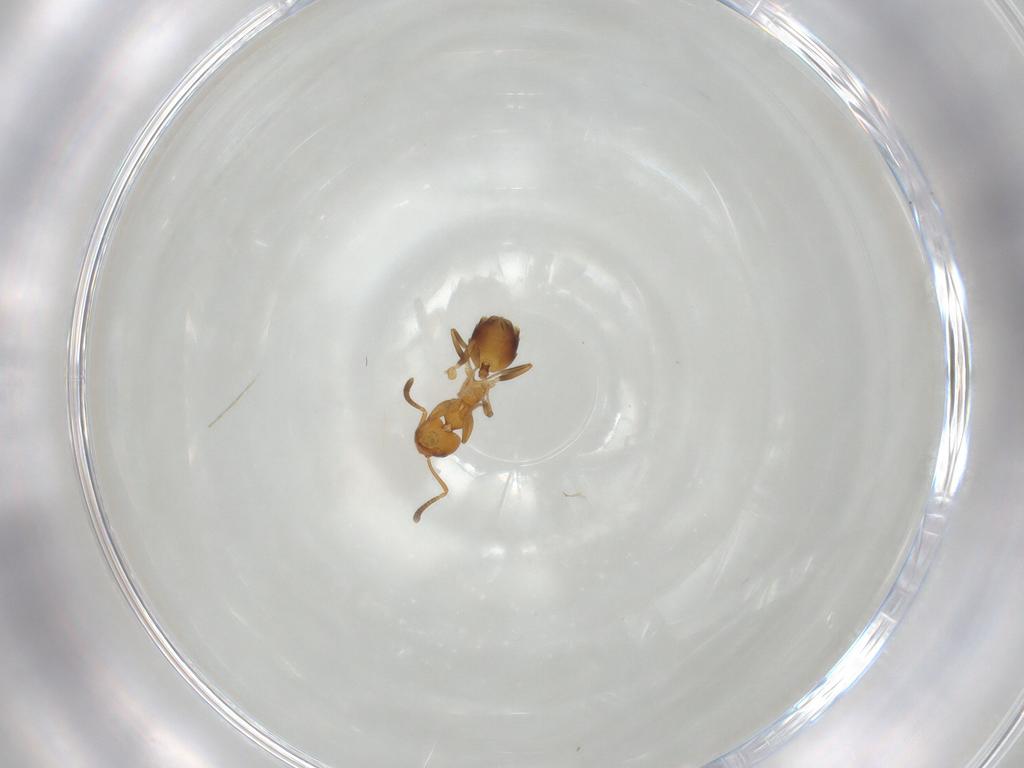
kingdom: Animalia
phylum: Arthropoda
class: Insecta
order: Hymenoptera
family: Formicidae
